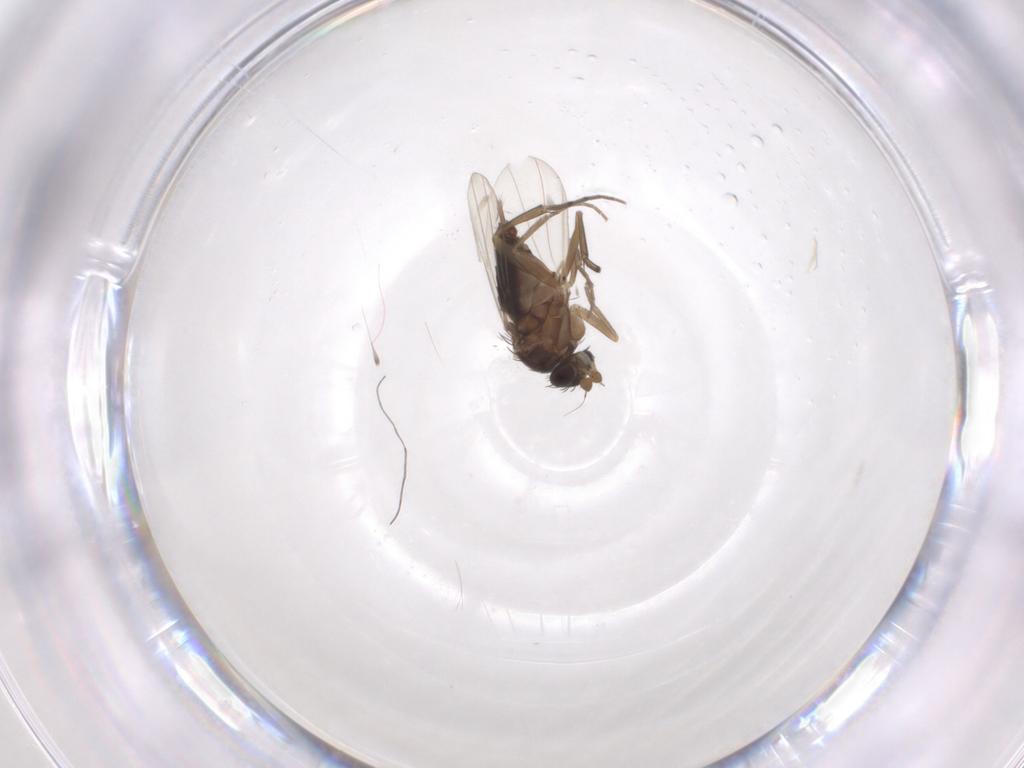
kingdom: Animalia
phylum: Arthropoda
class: Insecta
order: Diptera
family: Phoridae
